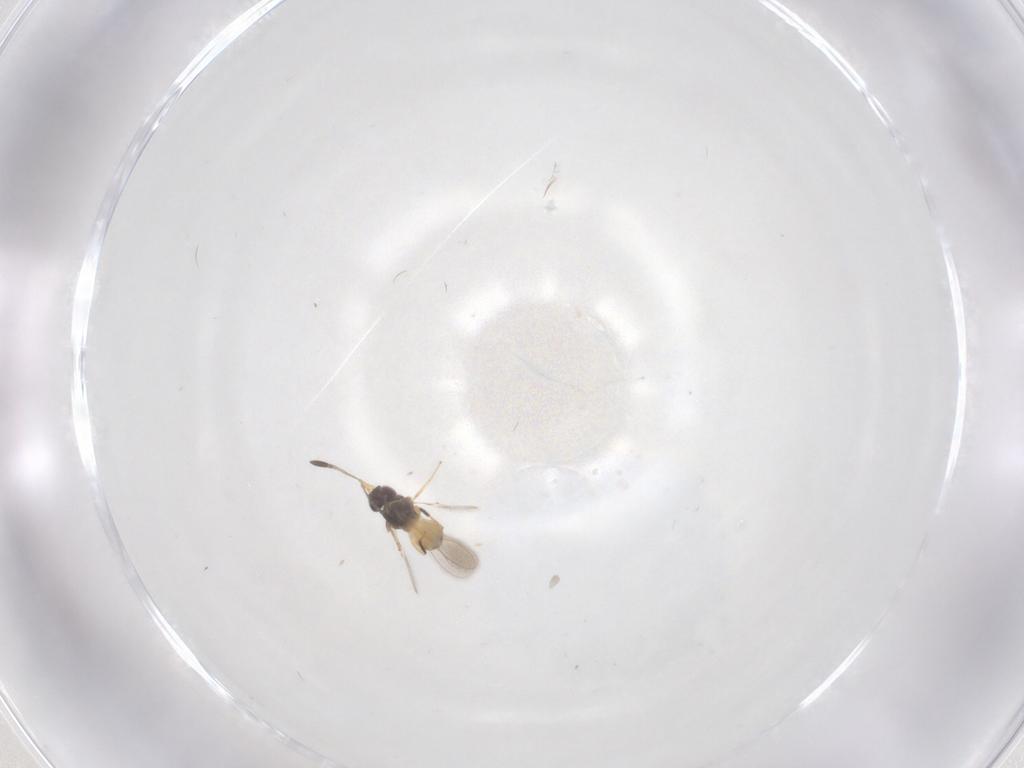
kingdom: Animalia
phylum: Arthropoda
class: Insecta
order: Hymenoptera
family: Mymaridae
